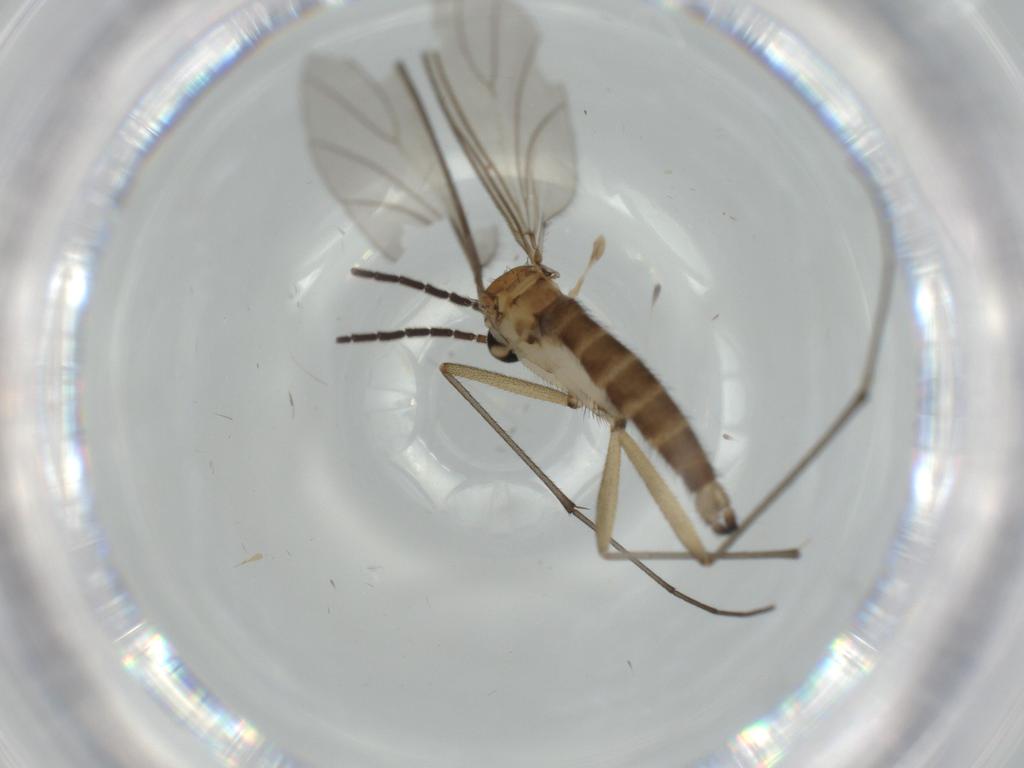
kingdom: Animalia
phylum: Arthropoda
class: Insecta
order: Diptera
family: Sciaridae
